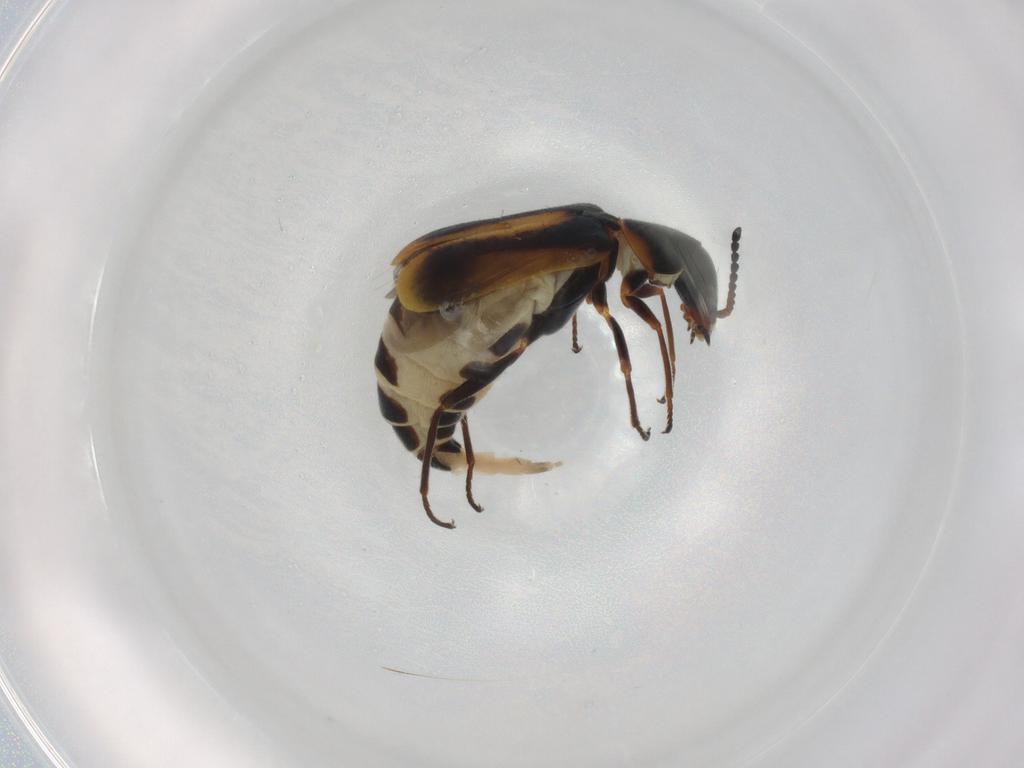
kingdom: Animalia
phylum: Arthropoda
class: Insecta
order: Coleoptera
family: Melyridae
